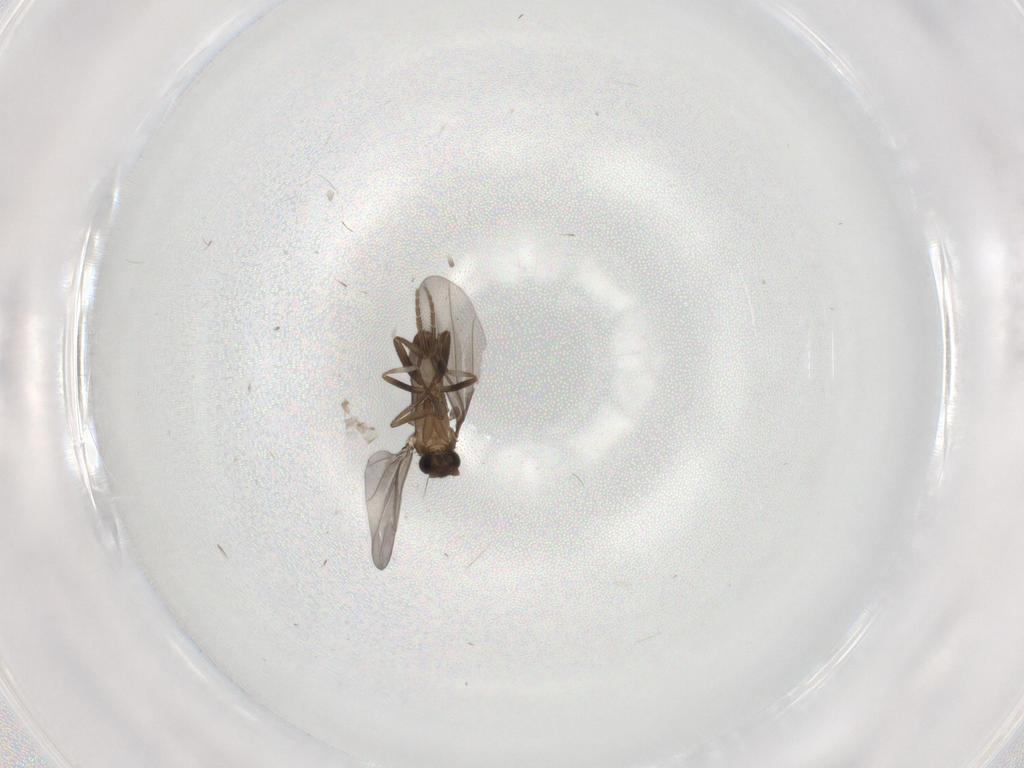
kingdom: Animalia
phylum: Arthropoda
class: Insecta
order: Diptera
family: Phoridae
